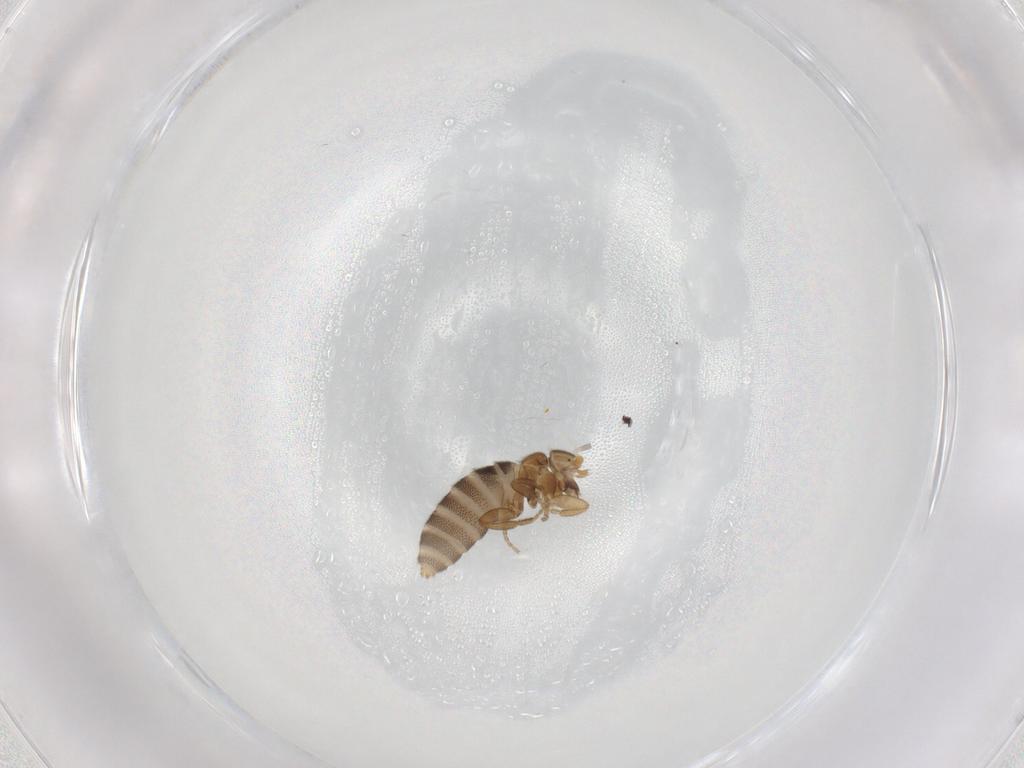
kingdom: Animalia
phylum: Arthropoda
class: Insecta
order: Diptera
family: Mycetophilidae
